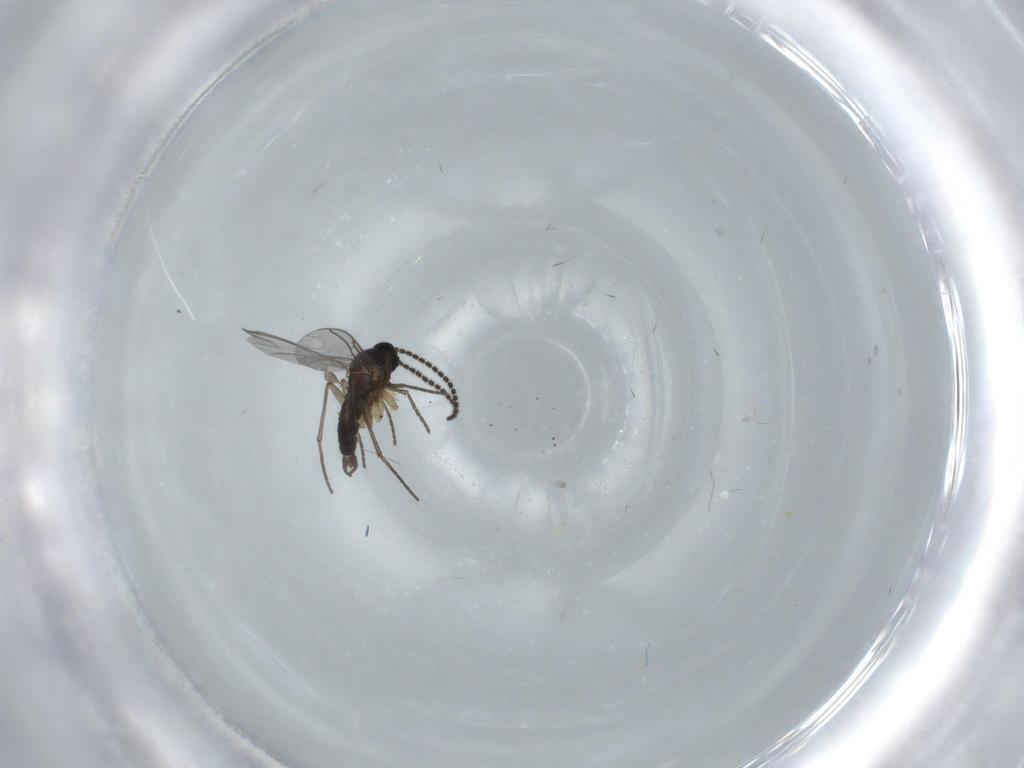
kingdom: Animalia
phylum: Arthropoda
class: Insecta
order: Diptera
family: Sciaridae
